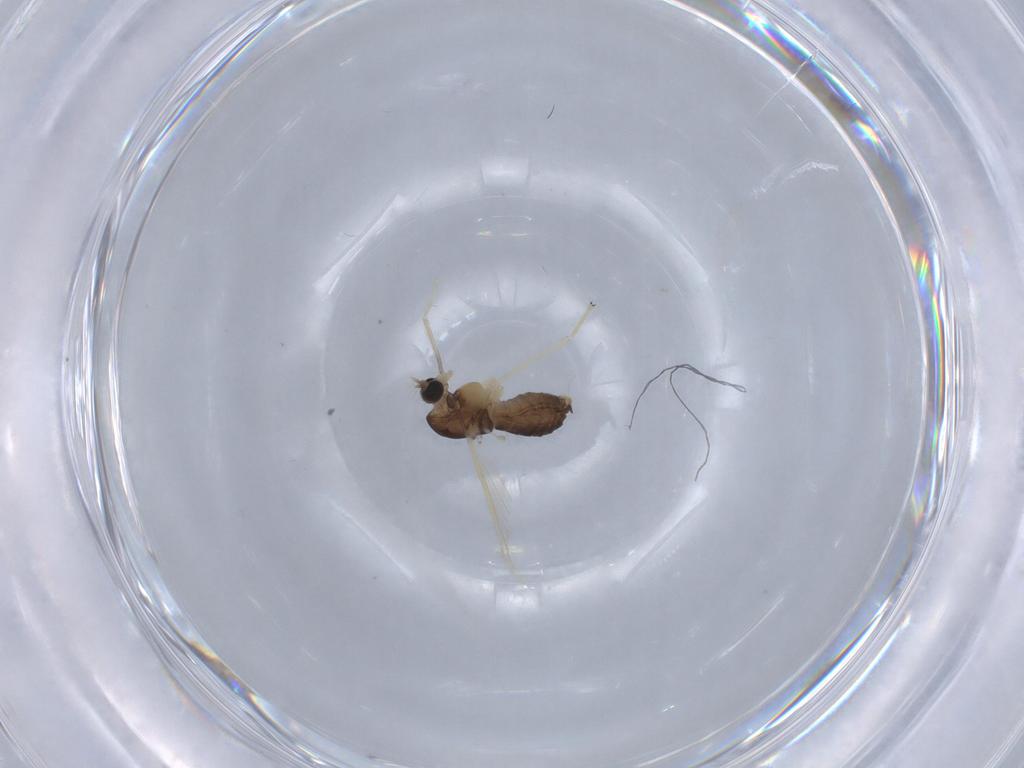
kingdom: Animalia
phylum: Arthropoda
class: Insecta
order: Diptera
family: Chironomidae
